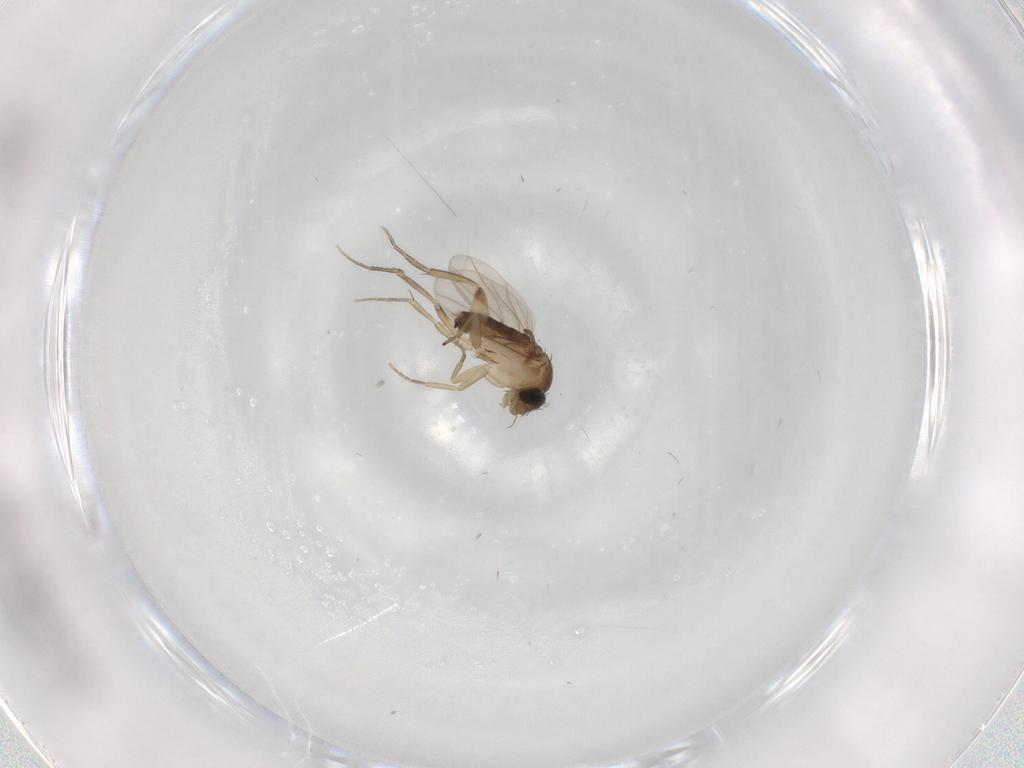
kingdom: Animalia
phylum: Arthropoda
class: Insecta
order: Diptera
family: Phoridae
